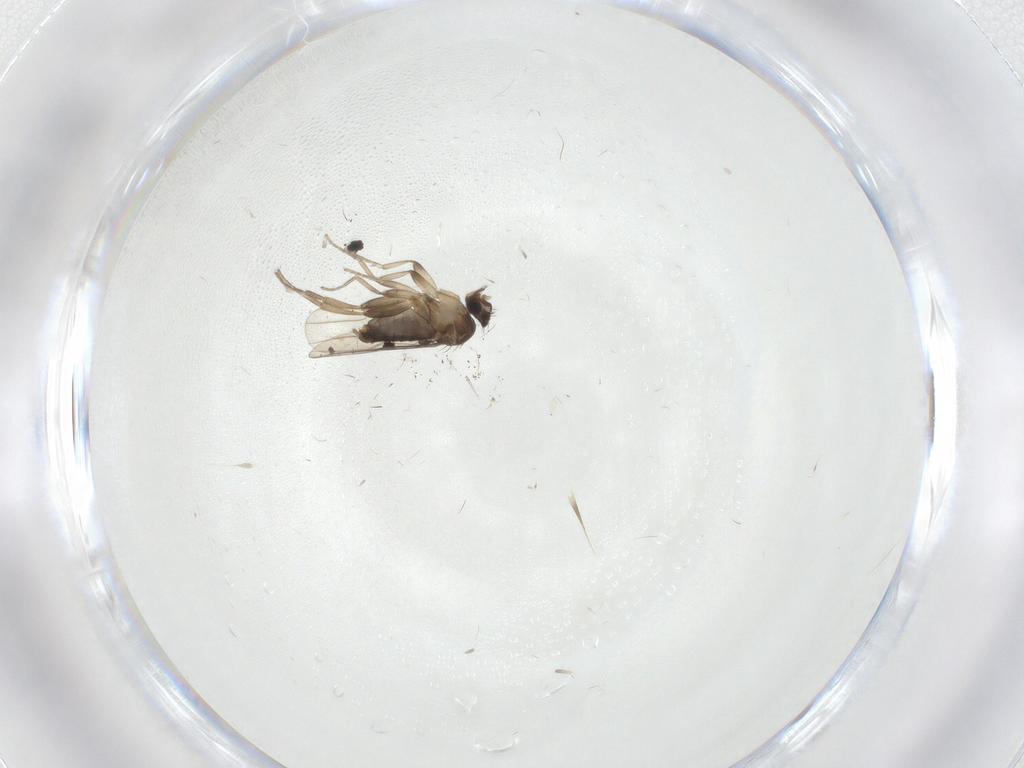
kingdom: Animalia
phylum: Arthropoda
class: Insecta
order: Diptera
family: Phoridae
